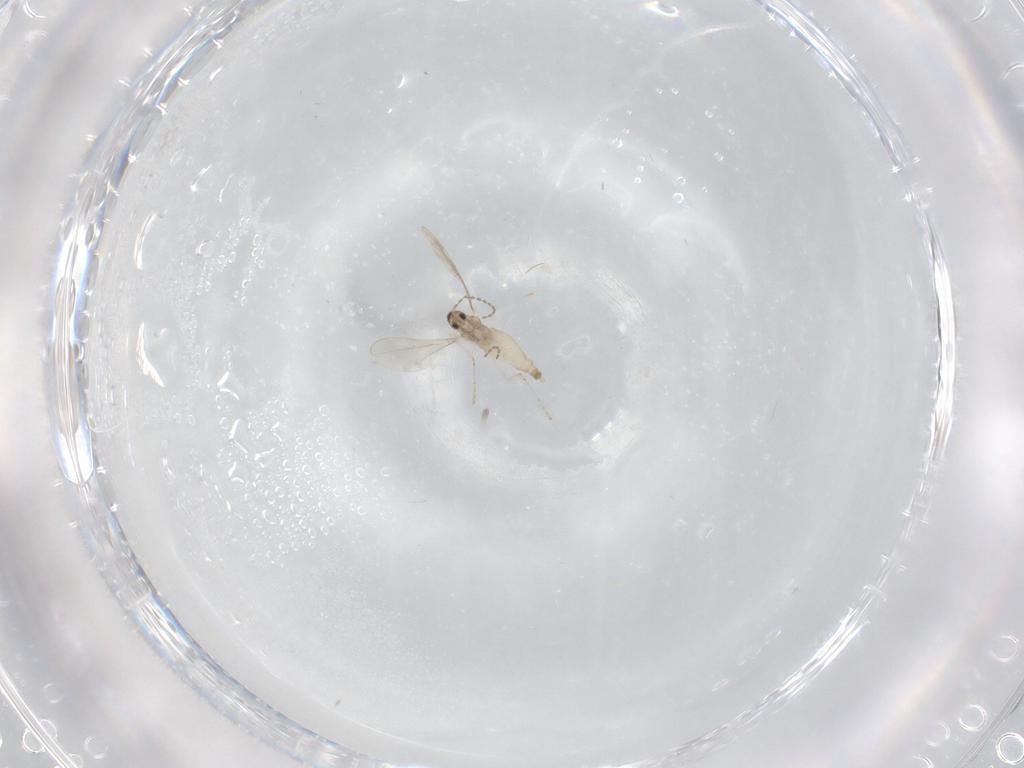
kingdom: Animalia
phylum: Arthropoda
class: Insecta
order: Diptera
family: Cecidomyiidae
